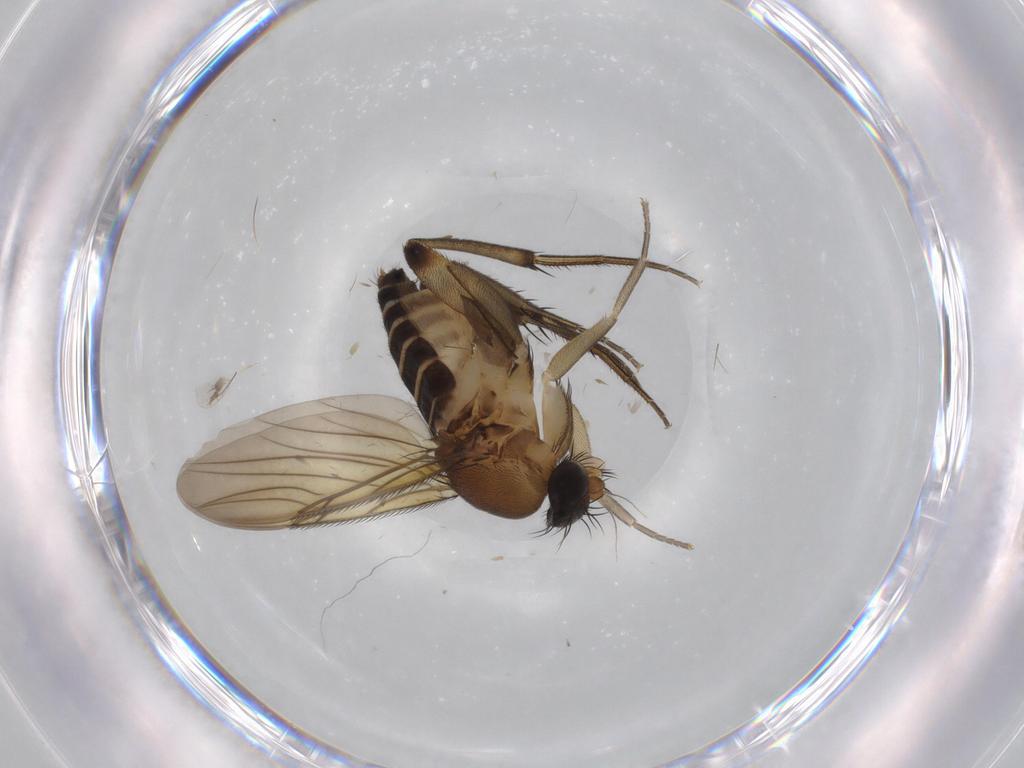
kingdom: Animalia
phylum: Arthropoda
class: Insecta
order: Diptera
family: Phoridae
